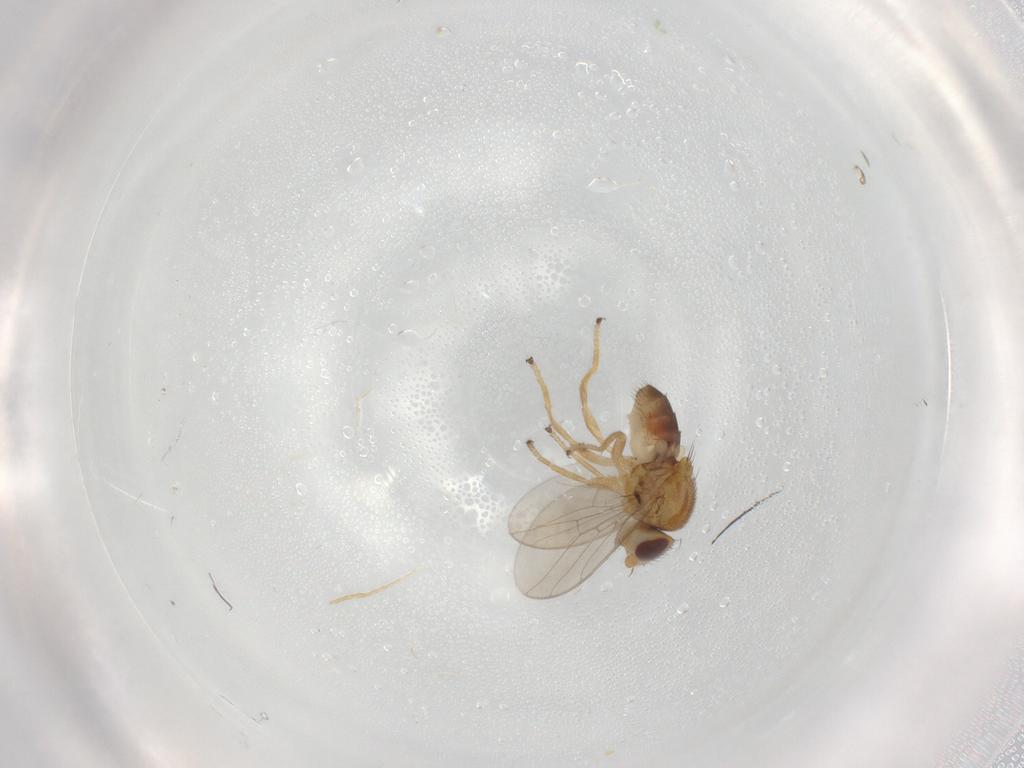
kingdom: Animalia
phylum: Arthropoda
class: Insecta
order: Diptera
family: Chloropidae
